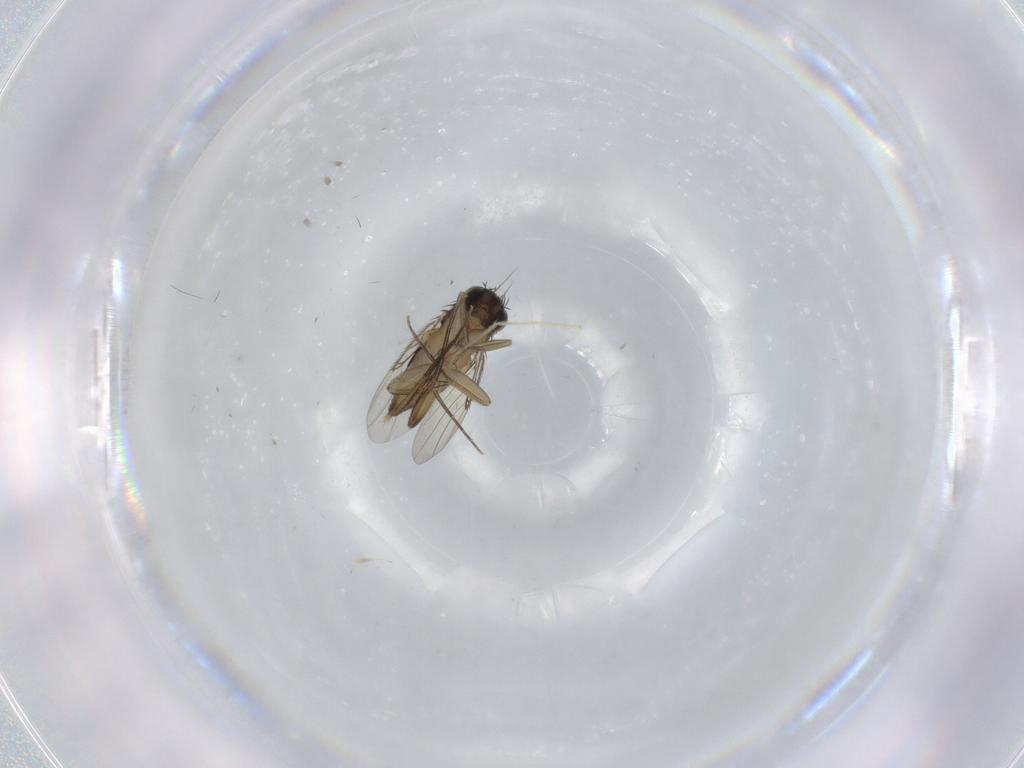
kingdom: Animalia
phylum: Arthropoda
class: Insecta
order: Diptera
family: Phoridae
